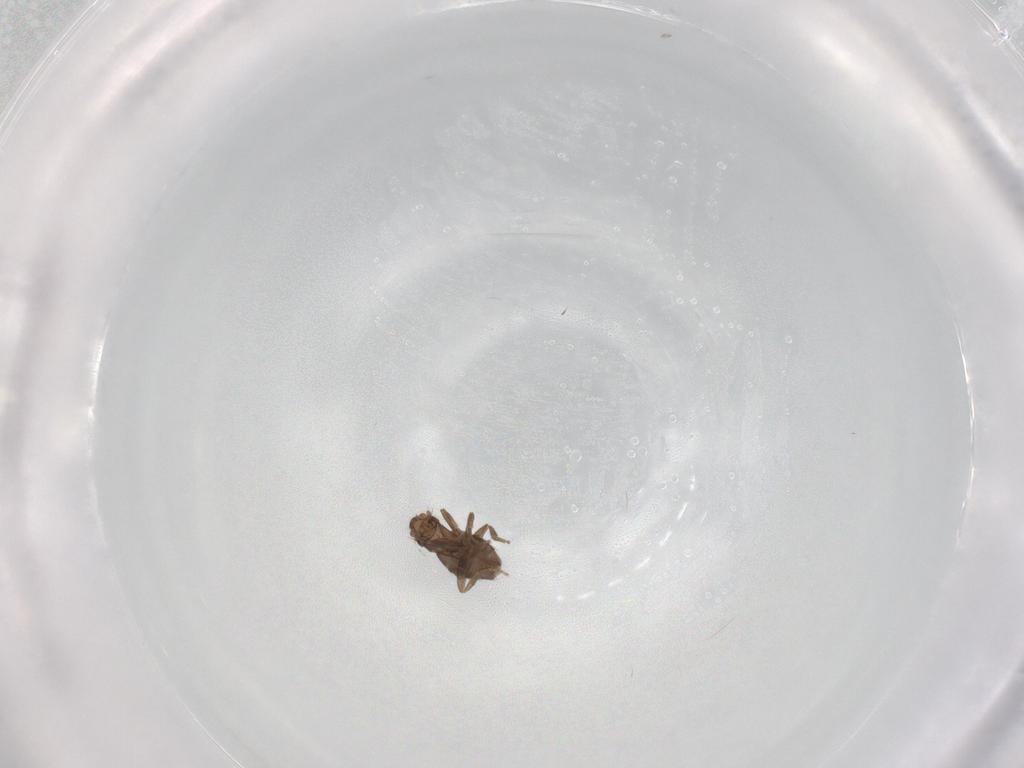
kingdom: Animalia
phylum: Arthropoda
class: Insecta
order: Diptera
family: Phoridae
